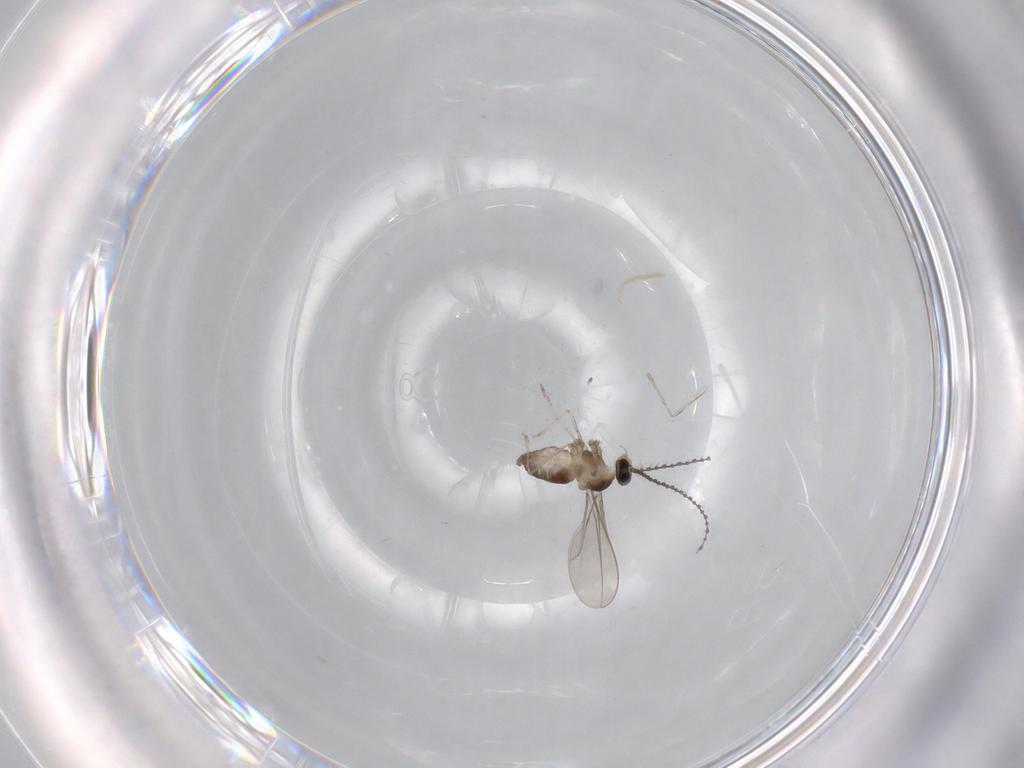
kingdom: Animalia
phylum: Arthropoda
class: Insecta
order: Diptera
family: Cecidomyiidae
